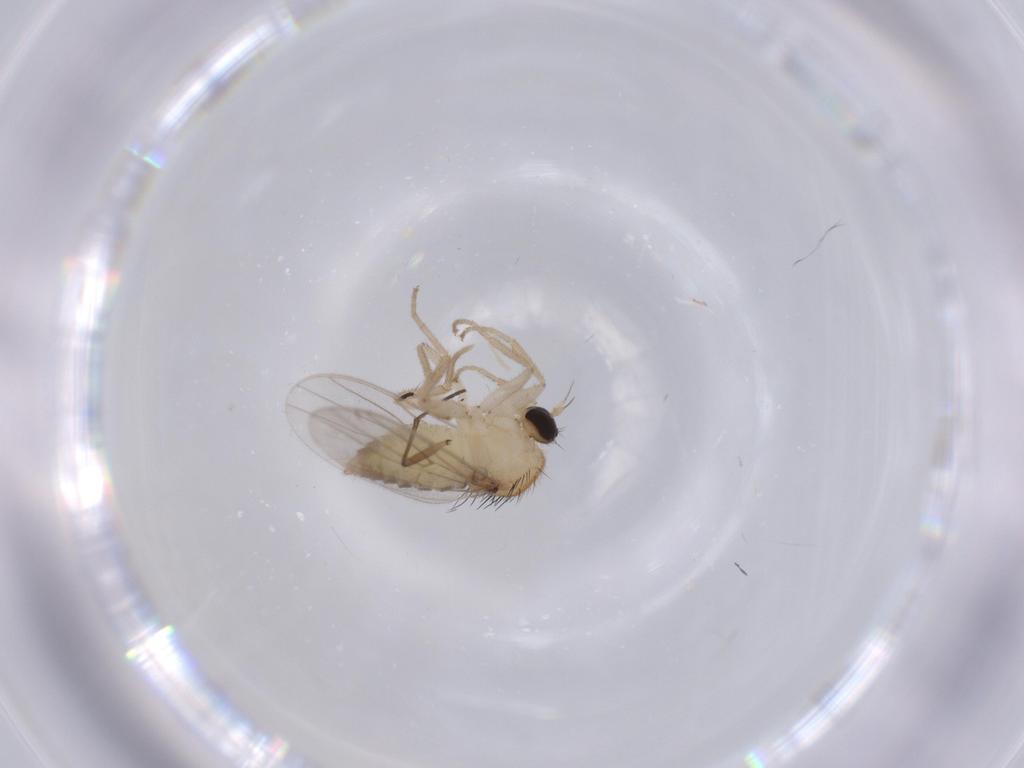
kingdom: Animalia
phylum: Arthropoda
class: Insecta
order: Diptera
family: Hybotidae
